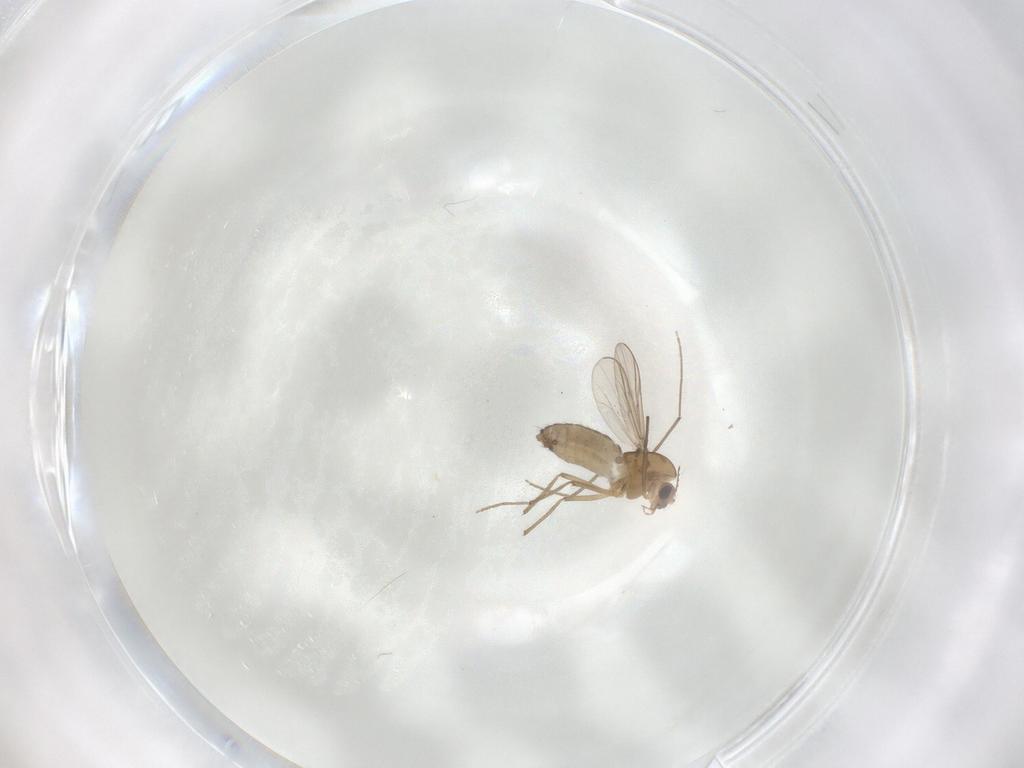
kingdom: Animalia
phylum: Arthropoda
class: Insecta
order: Diptera
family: Chironomidae
